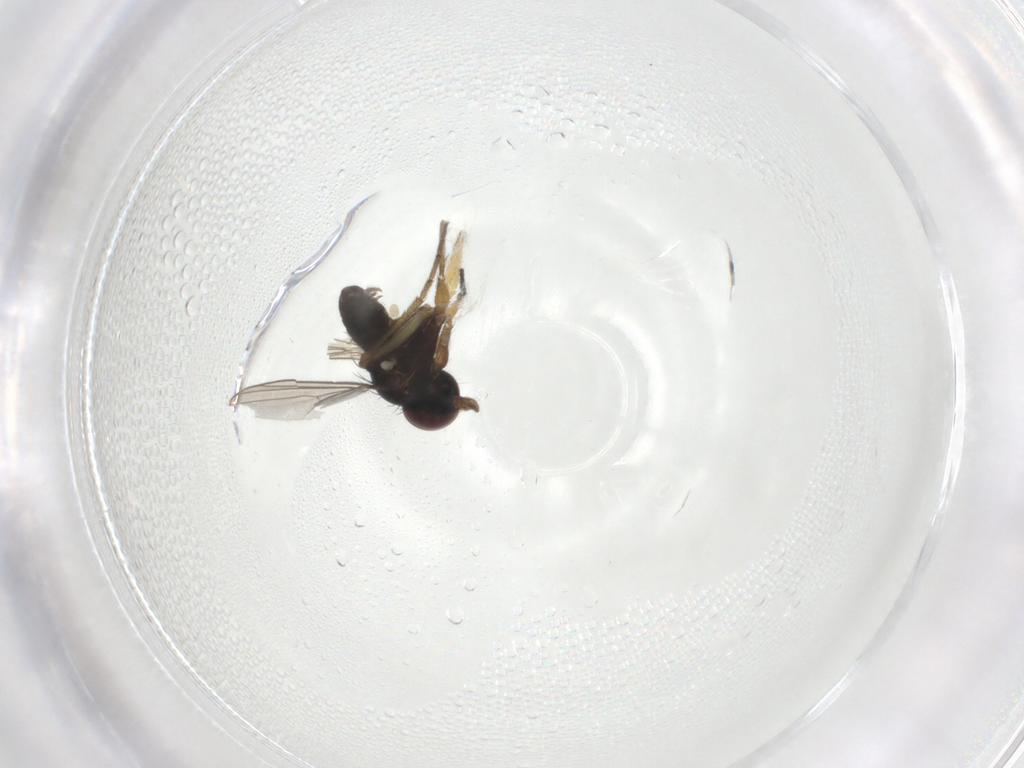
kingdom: Animalia
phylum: Arthropoda
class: Insecta
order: Diptera
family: Dolichopodidae
